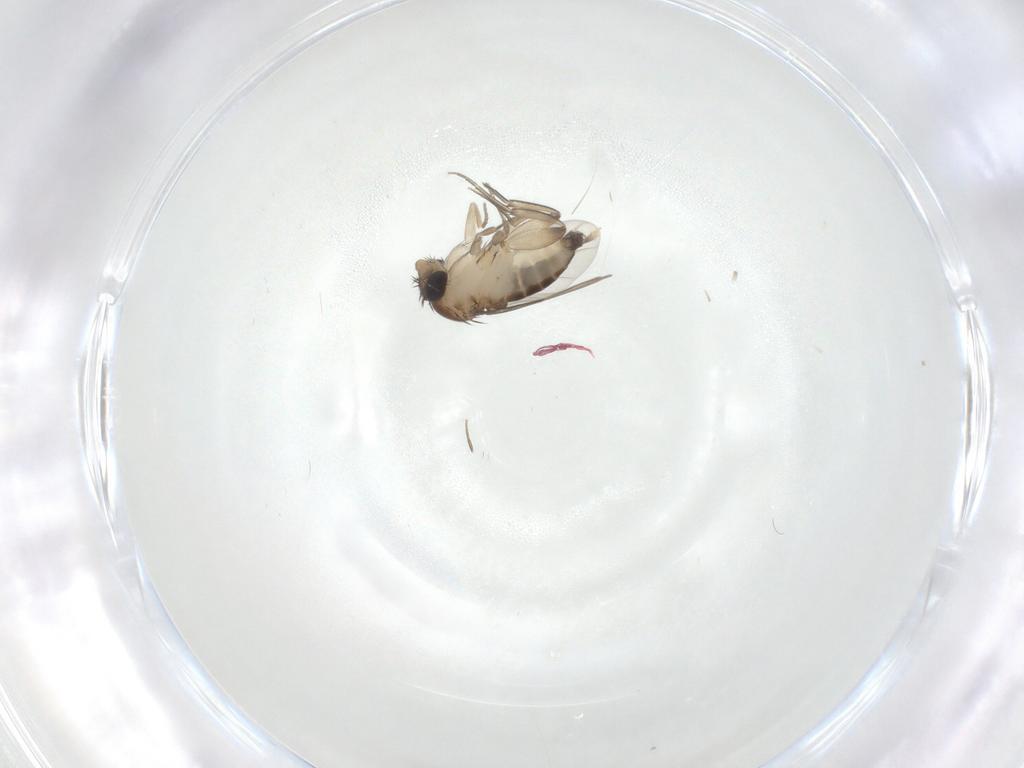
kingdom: Animalia
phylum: Arthropoda
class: Insecta
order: Diptera
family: Phoridae
